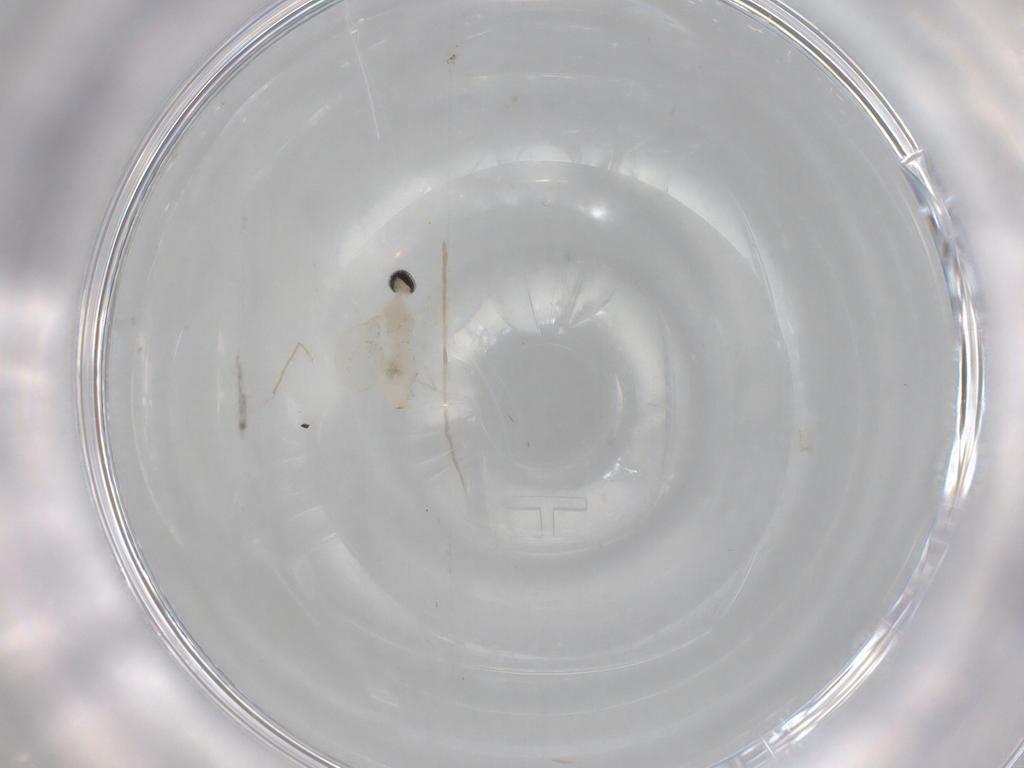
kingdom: Animalia
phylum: Arthropoda
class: Insecta
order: Diptera
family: Cecidomyiidae
